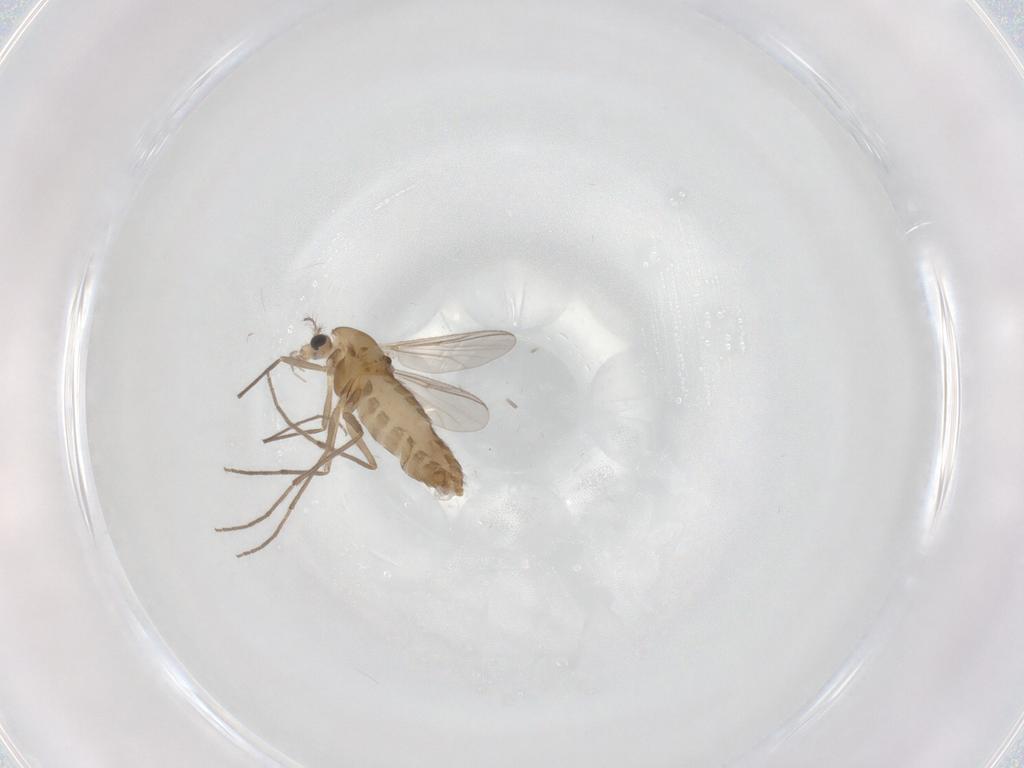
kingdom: Animalia
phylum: Arthropoda
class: Insecta
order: Diptera
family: Chironomidae
